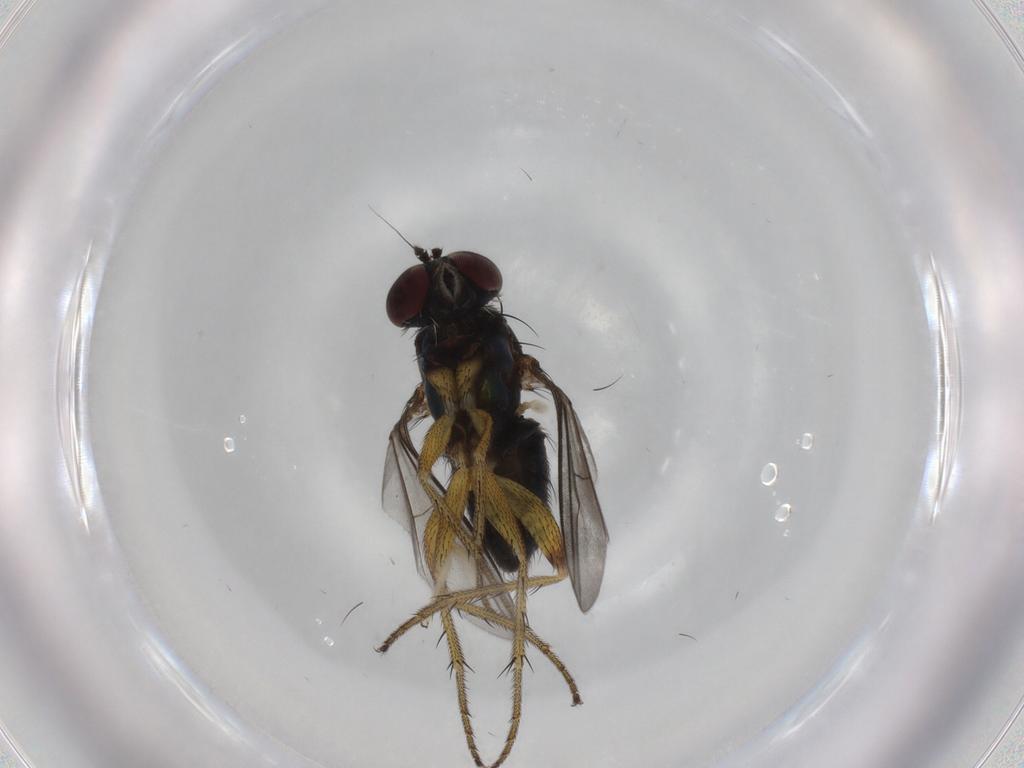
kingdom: Animalia
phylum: Arthropoda
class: Insecta
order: Diptera
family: Dolichopodidae
